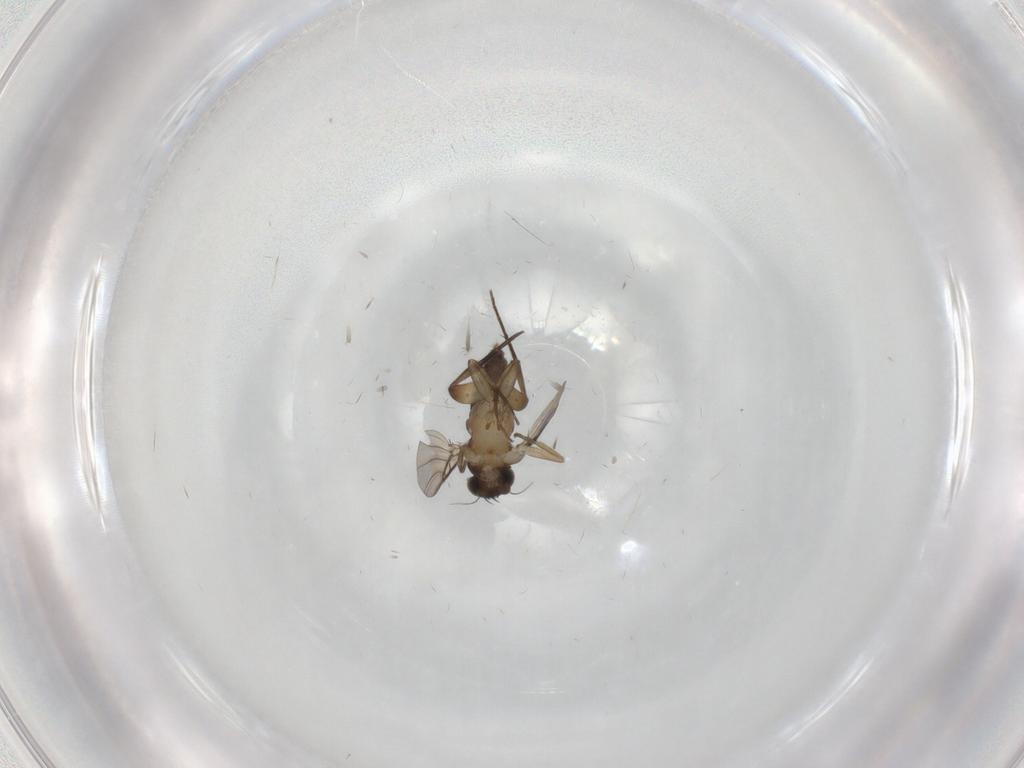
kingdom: Animalia
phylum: Arthropoda
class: Insecta
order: Diptera
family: Phoridae
